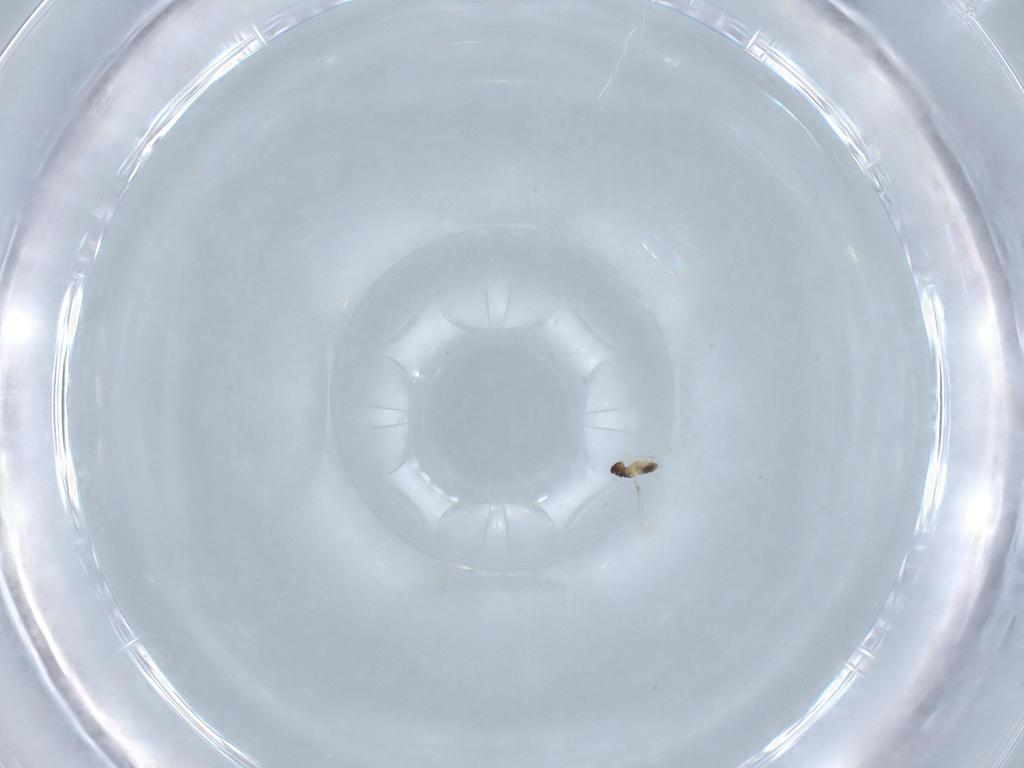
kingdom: Animalia
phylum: Arthropoda
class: Insecta
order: Hymenoptera
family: Mymaridae
